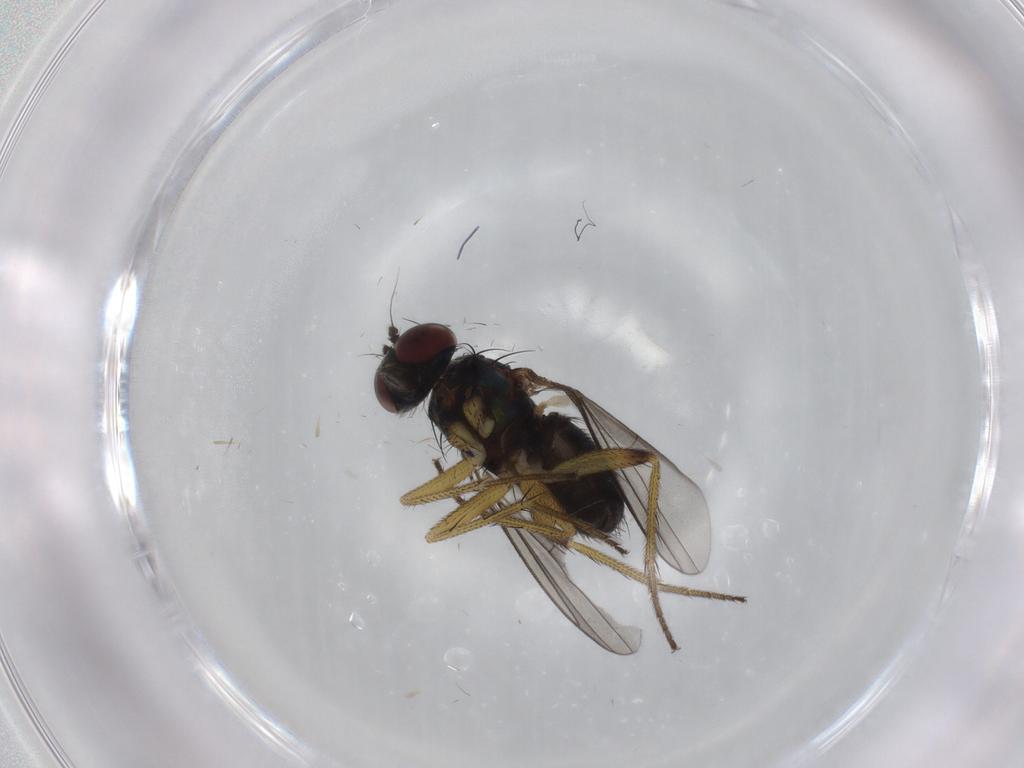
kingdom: Animalia
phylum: Arthropoda
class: Insecta
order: Diptera
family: Dolichopodidae
